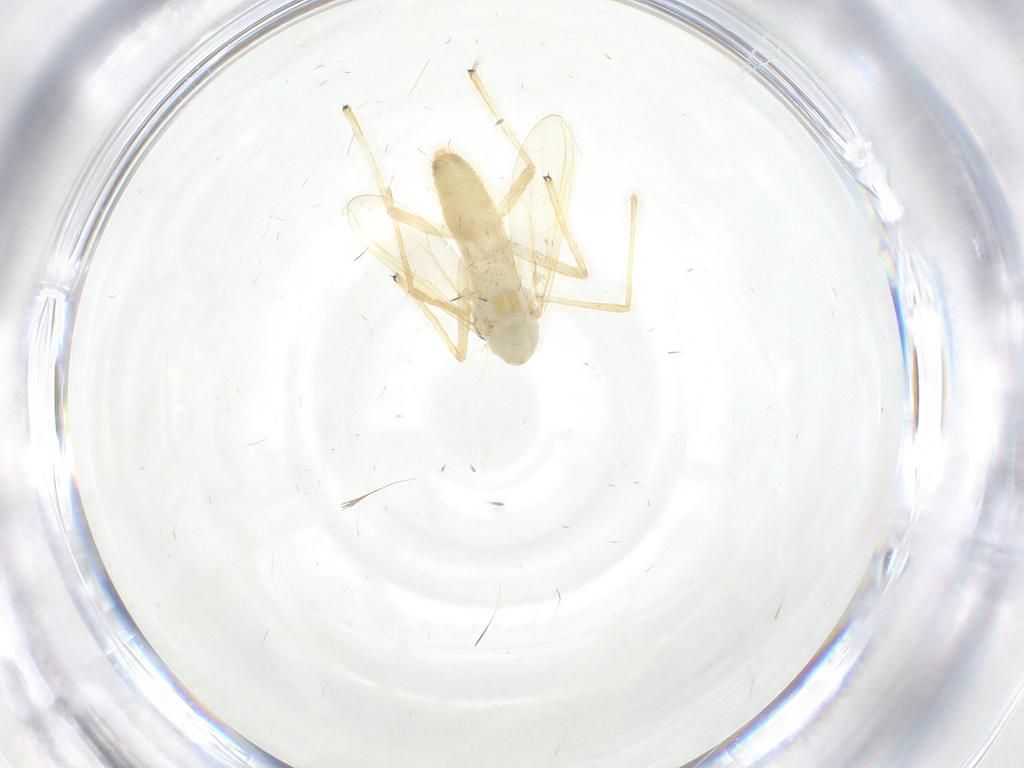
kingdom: Animalia
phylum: Arthropoda
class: Insecta
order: Diptera
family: Chironomidae
